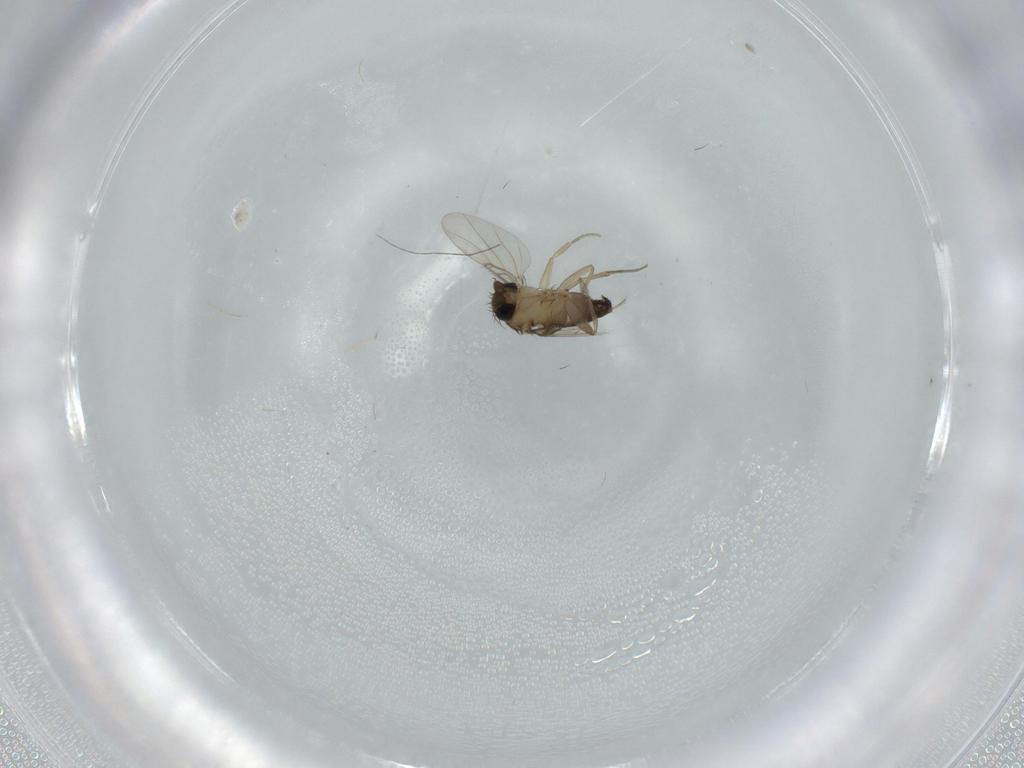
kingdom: Animalia
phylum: Arthropoda
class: Insecta
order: Diptera
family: Phoridae
